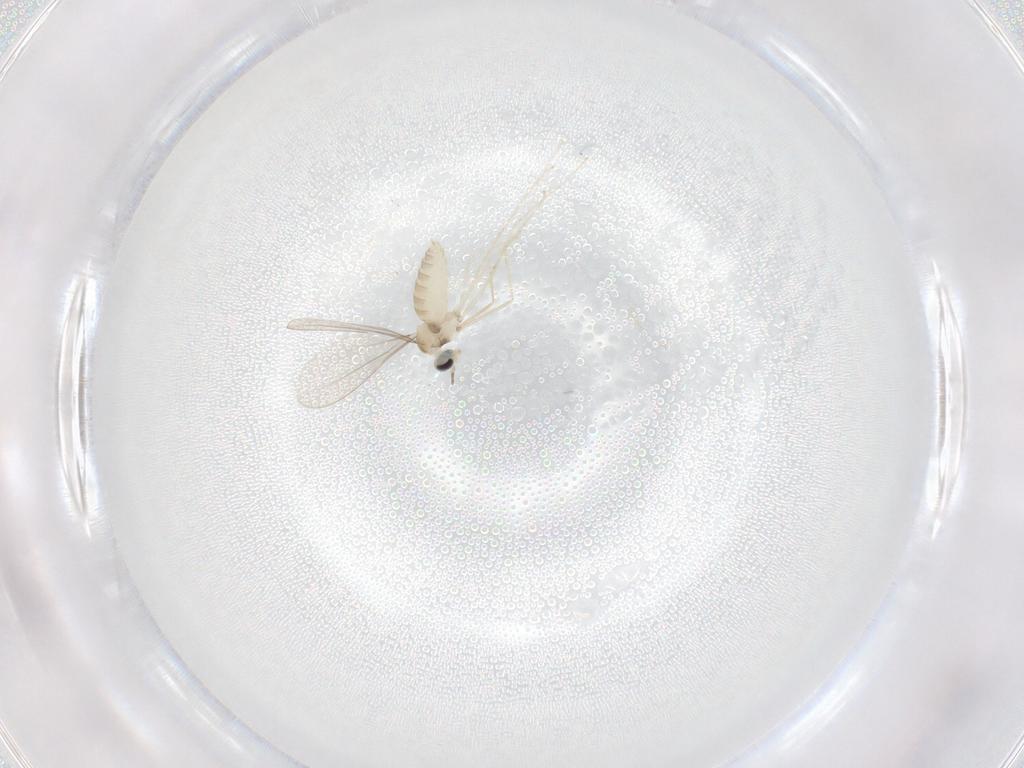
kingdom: Animalia
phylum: Arthropoda
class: Insecta
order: Diptera
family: Cecidomyiidae
